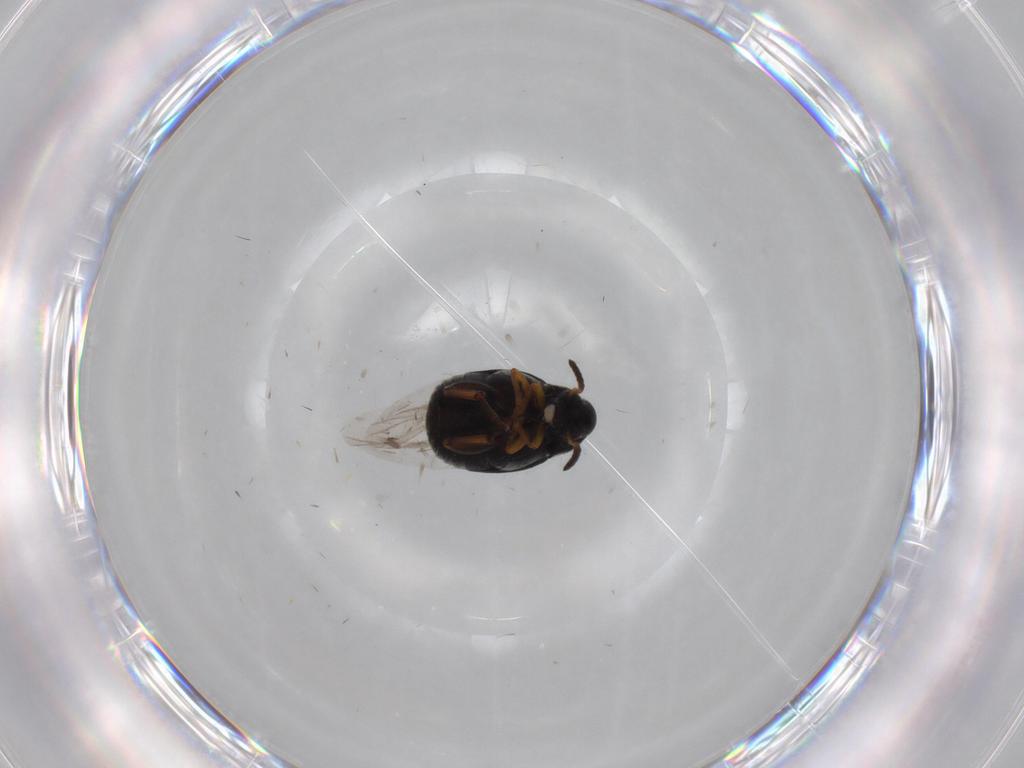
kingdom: Animalia
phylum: Arthropoda
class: Insecta
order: Coleoptera
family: Chrysomelidae
